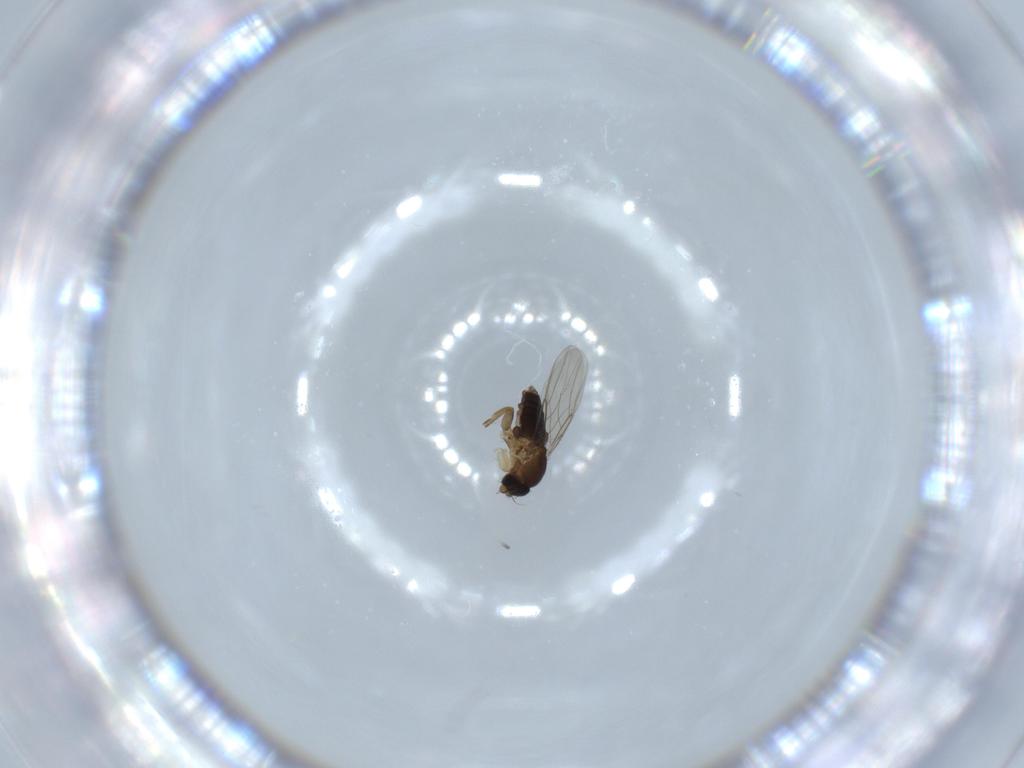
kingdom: Animalia
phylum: Arthropoda
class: Insecta
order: Diptera
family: Phoridae
